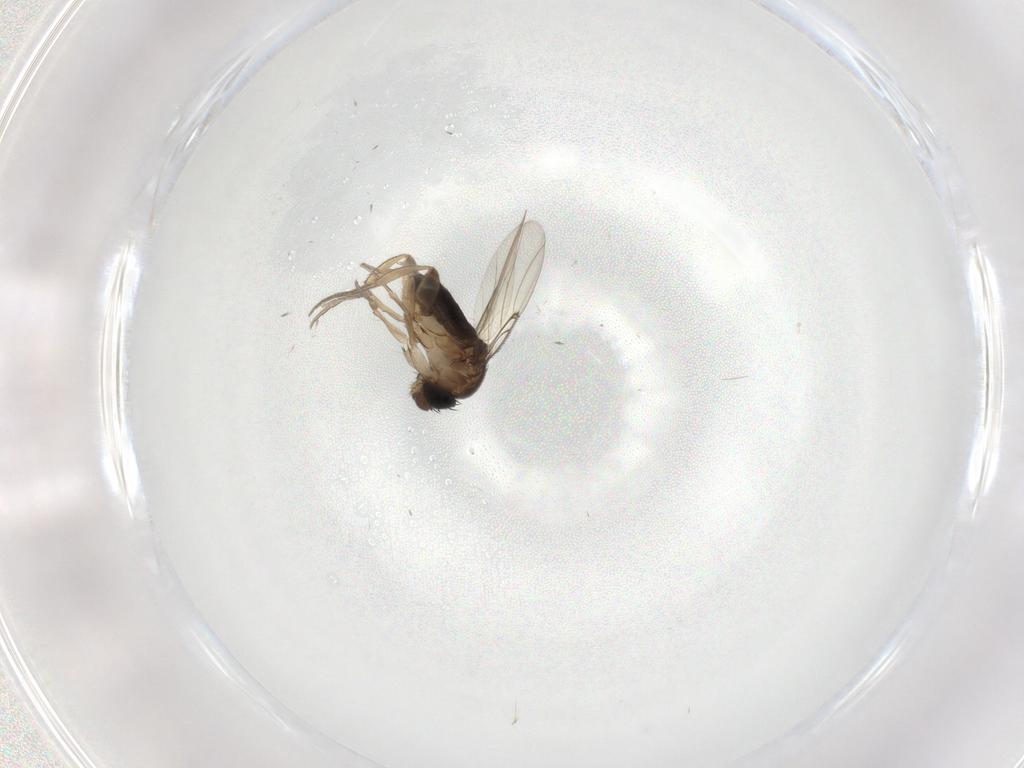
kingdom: Animalia
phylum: Arthropoda
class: Insecta
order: Diptera
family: Phoridae
